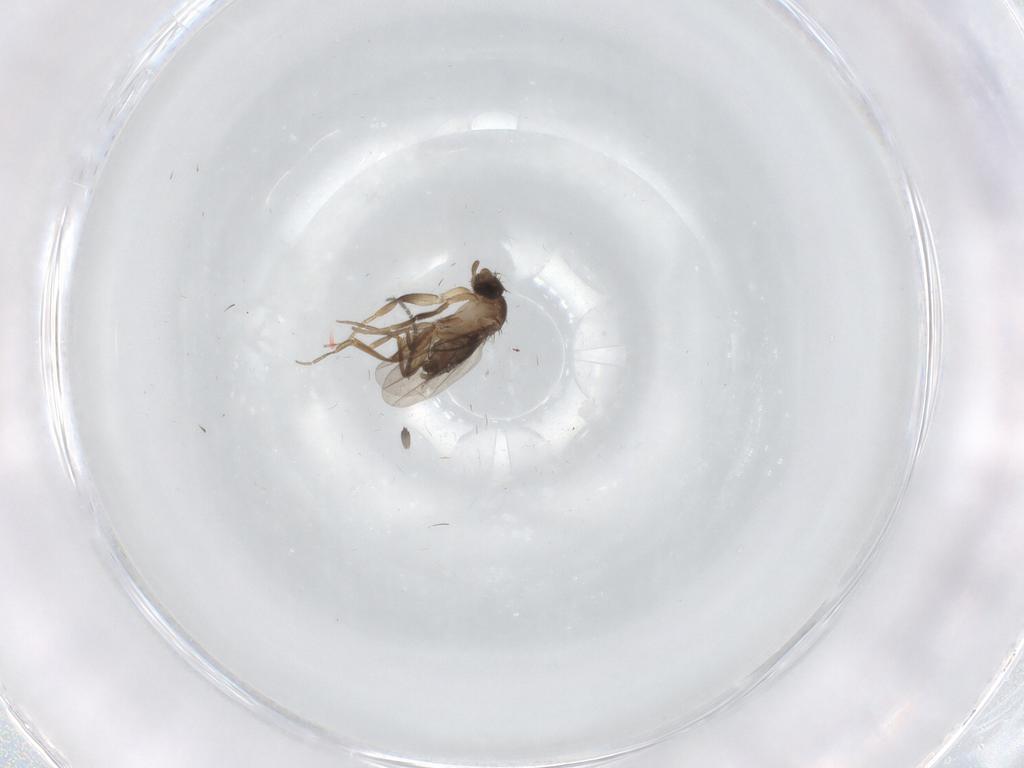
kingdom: Animalia
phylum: Arthropoda
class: Insecta
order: Diptera
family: Sciaridae
